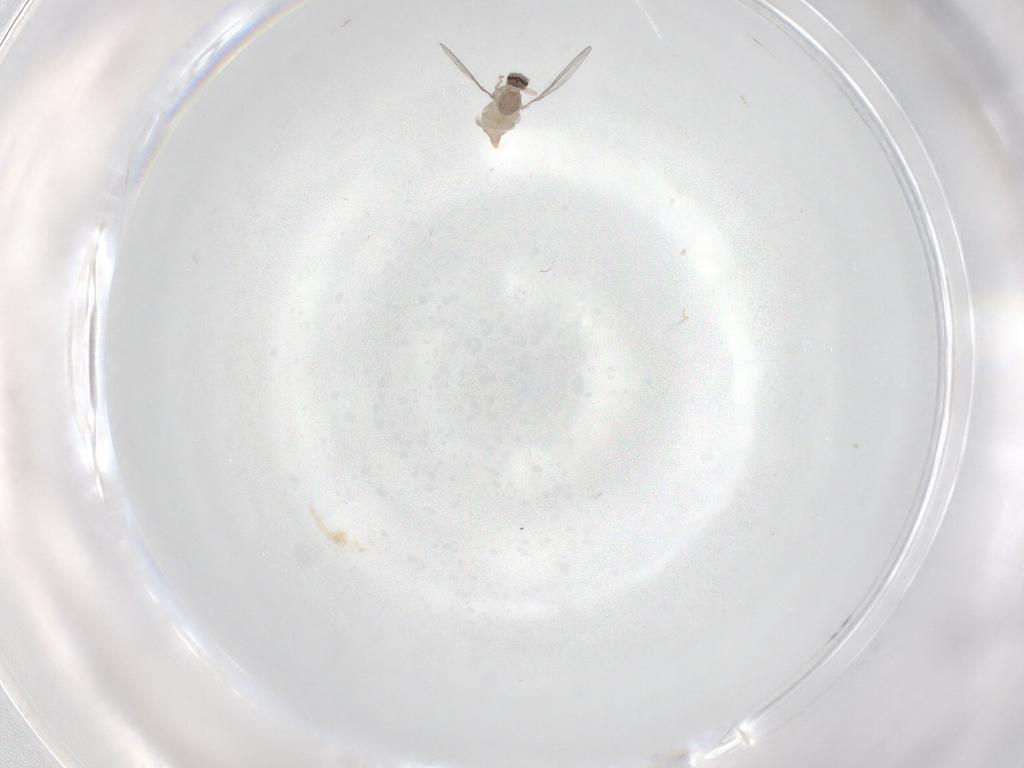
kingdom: Animalia
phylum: Arthropoda
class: Insecta
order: Diptera
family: Cecidomyiidae
